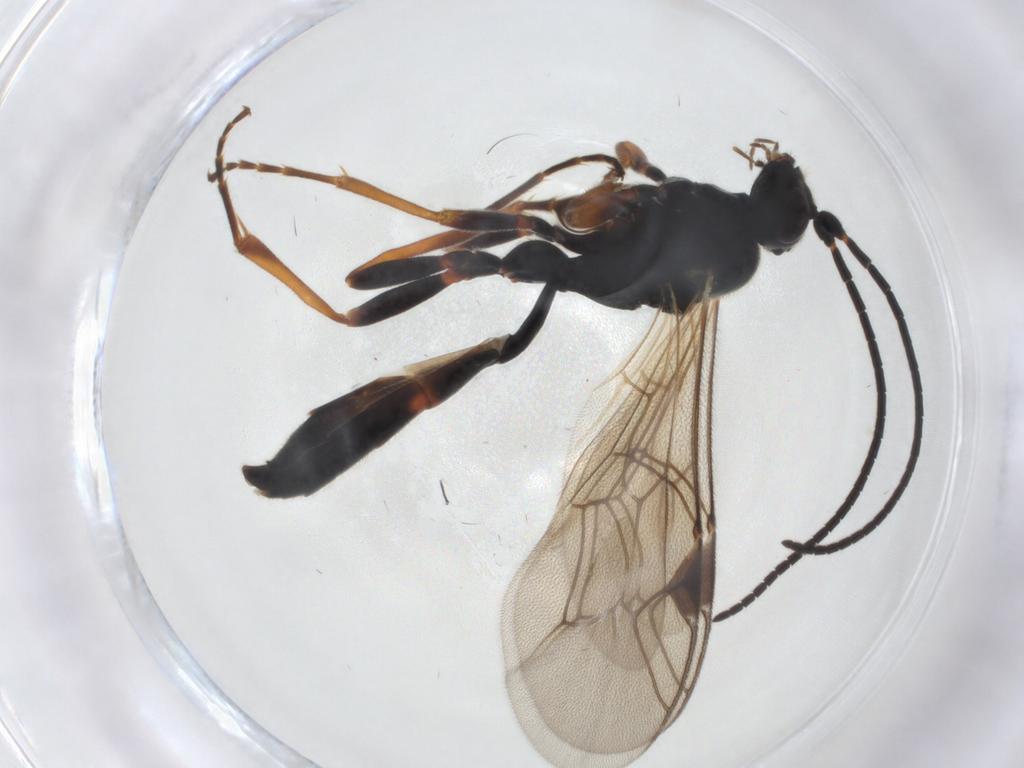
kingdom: Animalia
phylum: Arthropoda
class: Insecta
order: Hymenoptera
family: Ichneumonidae
